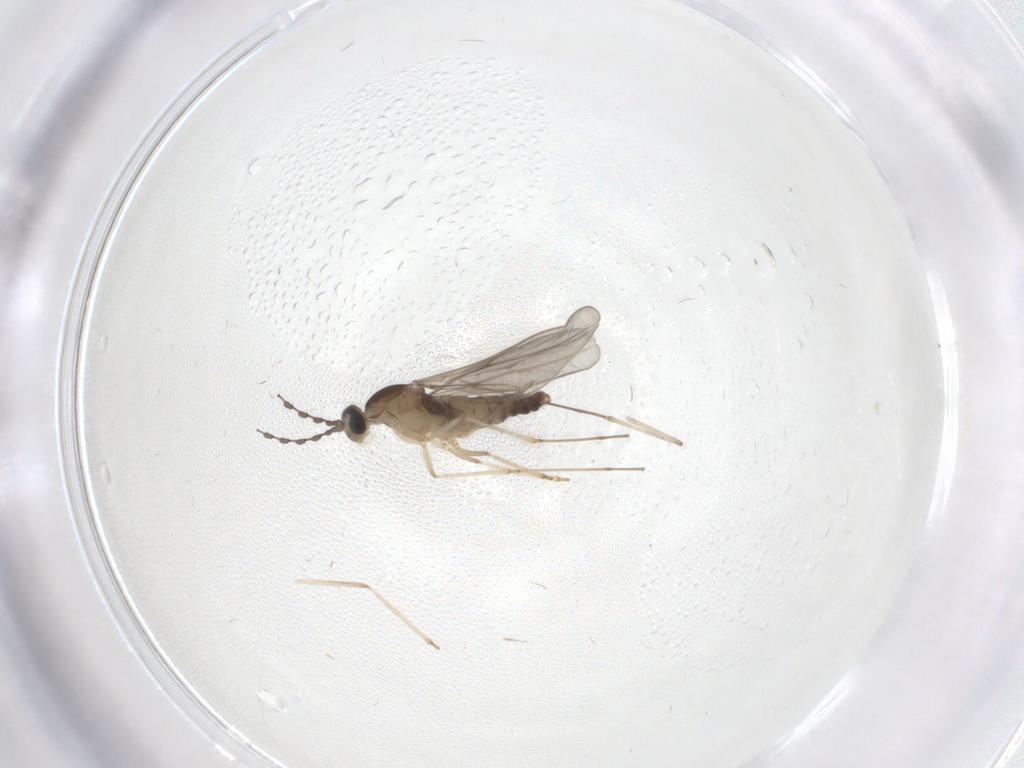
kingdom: Animalia
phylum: Arthropoda
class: Insecta
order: Diptera
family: Cecidomyiidae
